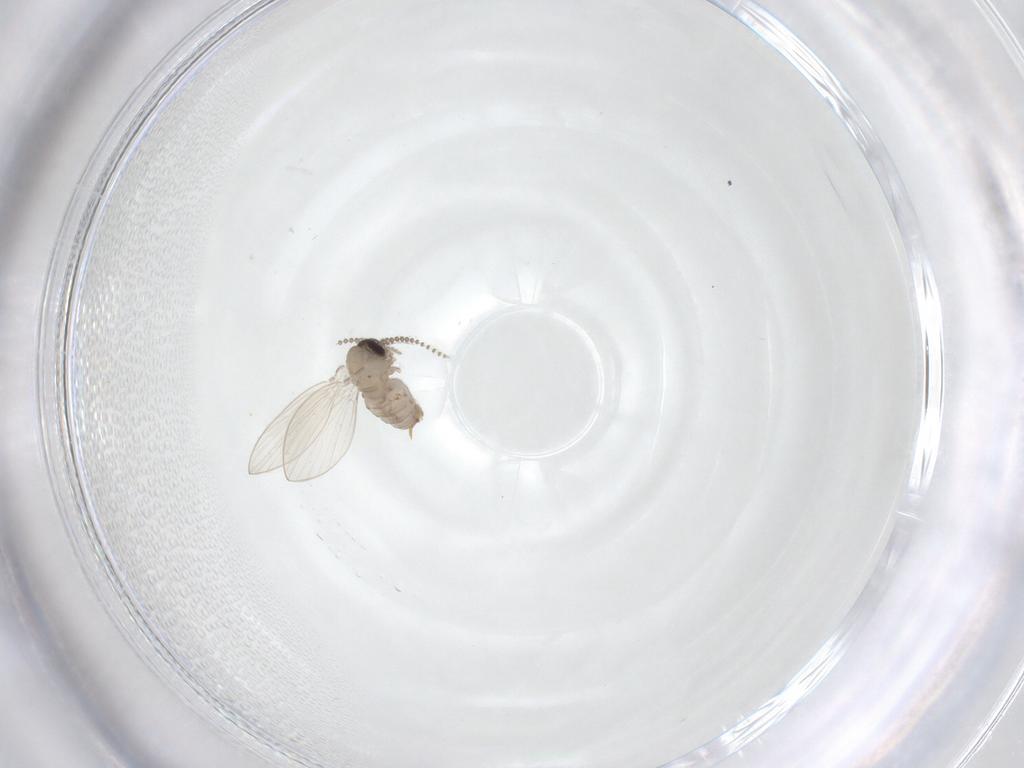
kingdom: Animalia
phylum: Arthropoda
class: Insecta
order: Diptera
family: Psychodidae
